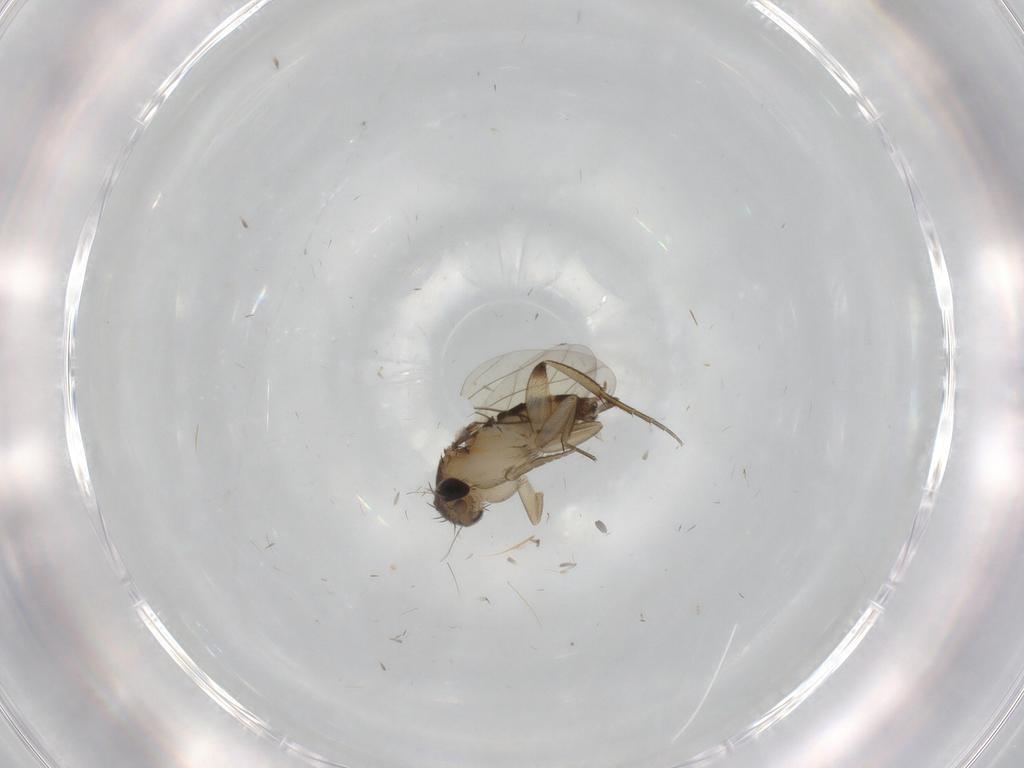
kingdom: Animalia
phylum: Arthropoda
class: Insecta
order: Diptera
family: Phoridae
